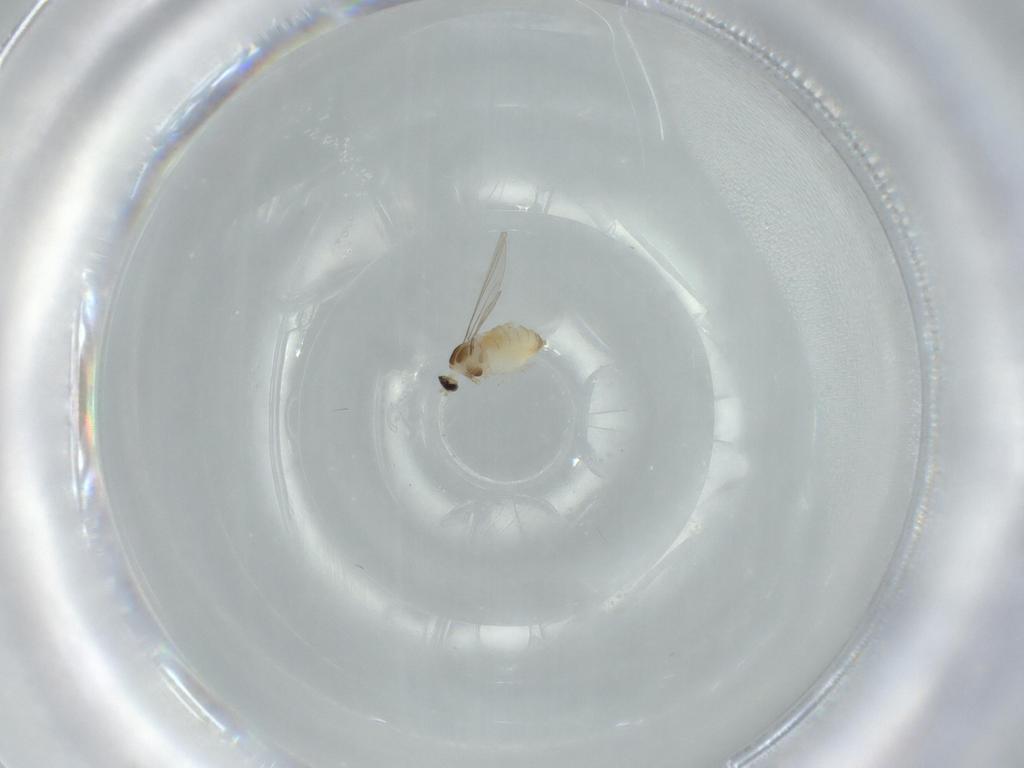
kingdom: Animalia
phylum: Arthropoda
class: Insecta
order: Diptera
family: Cecidomyiidae
